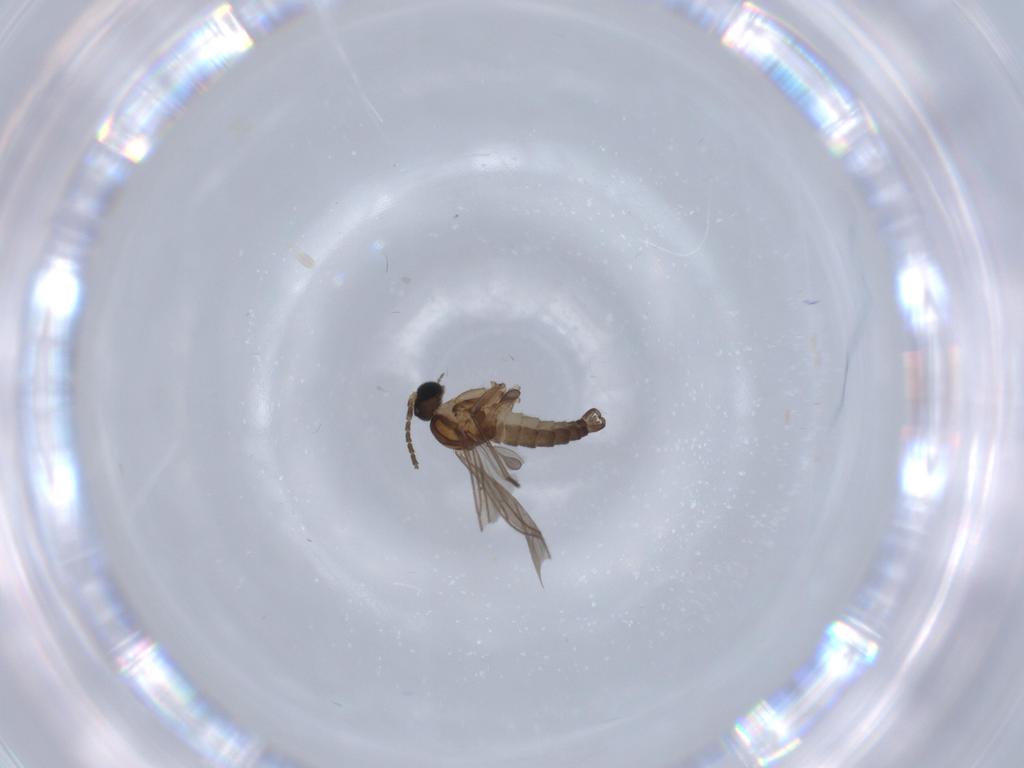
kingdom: Animalia
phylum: Arthropoda
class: Insecta
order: Diptera
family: Sciaridae
